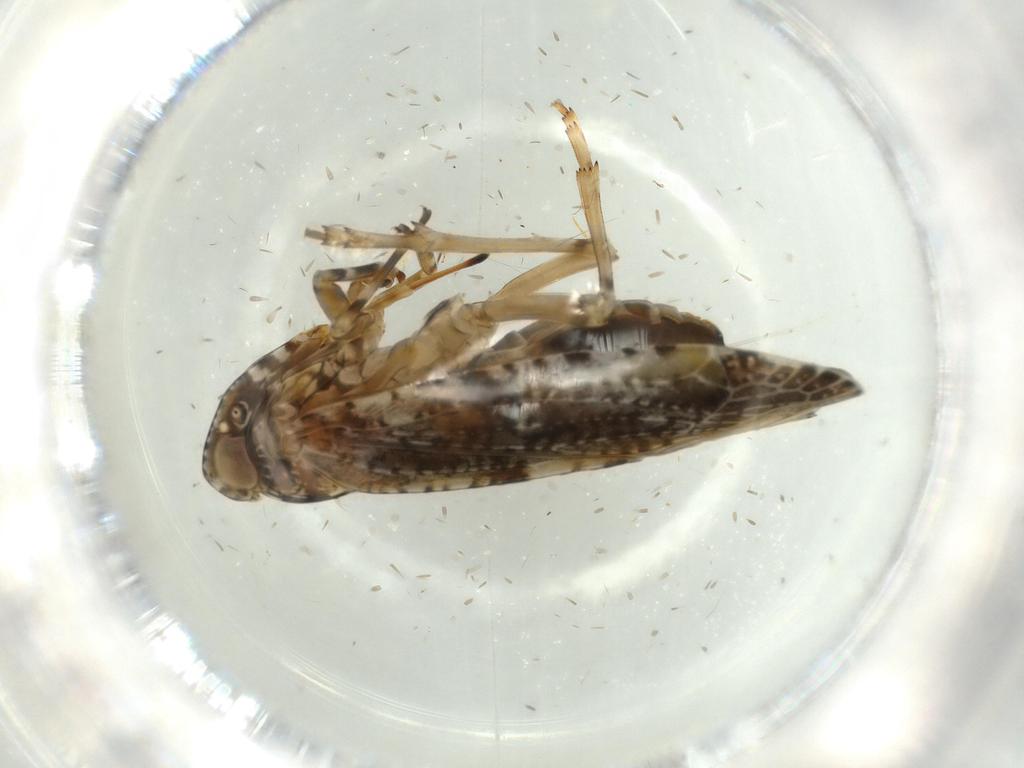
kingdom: Animalia
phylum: Arthropoda
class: Insecta
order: Hemiptera
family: Achilidae
